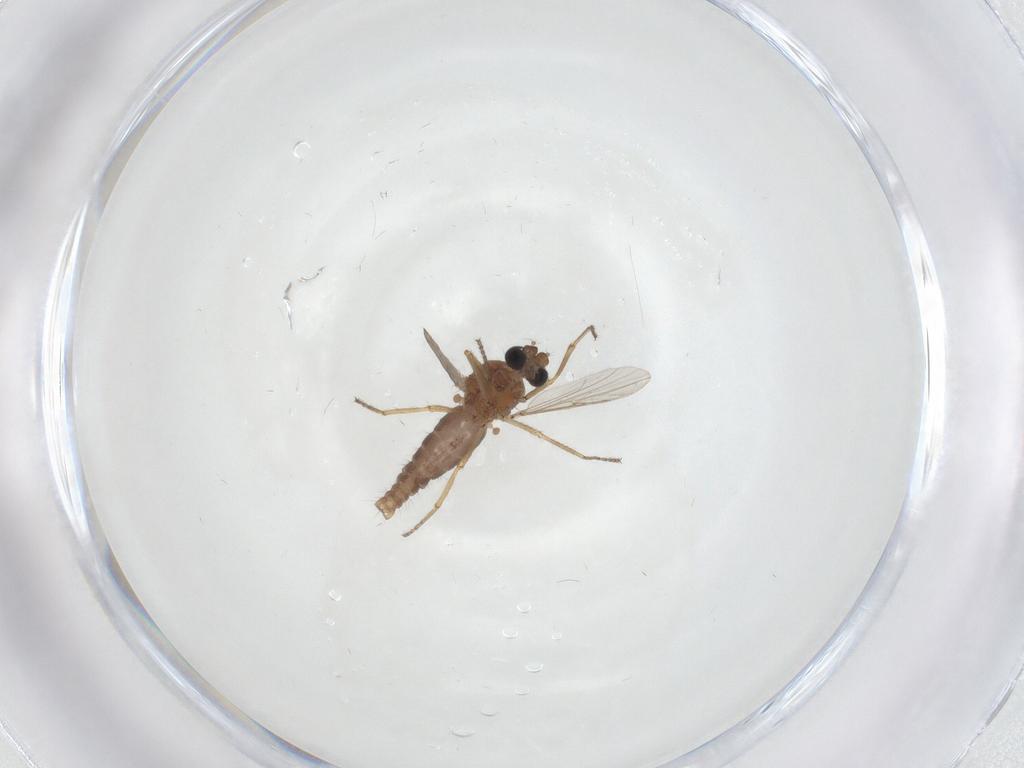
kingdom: Animalia
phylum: Arthropoda
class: Insecta
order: Diptera
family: Ceratopogonidae
